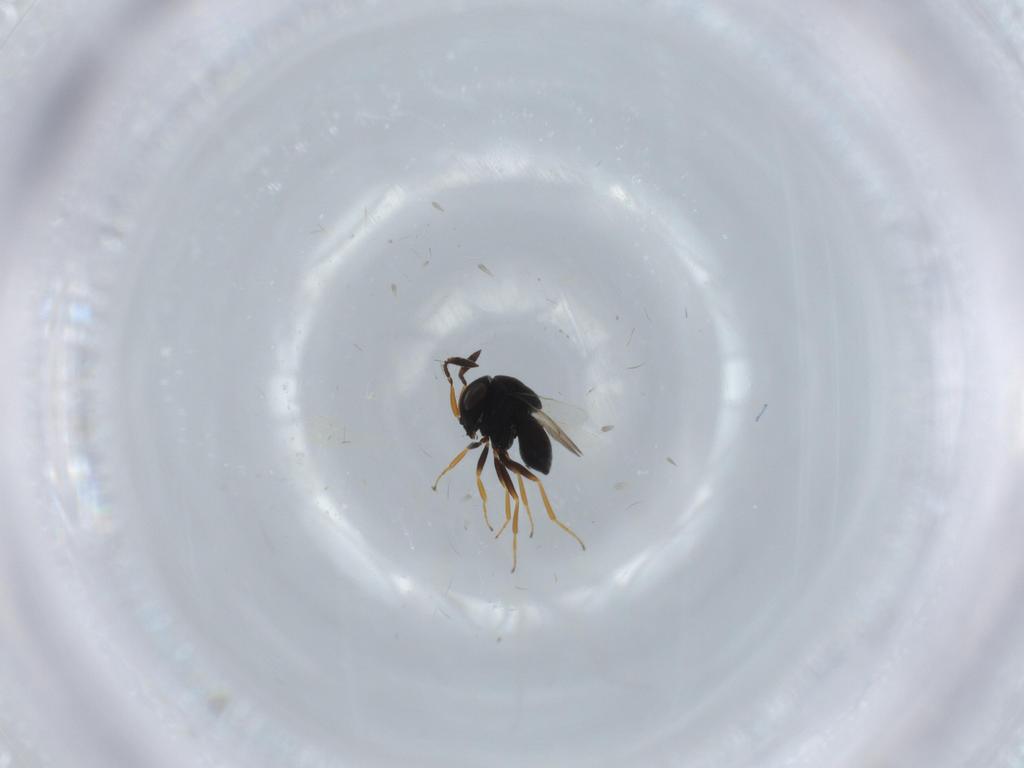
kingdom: Animalia
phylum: Arthropoda
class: Insecta
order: Hymenoptera
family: Scelionidae
